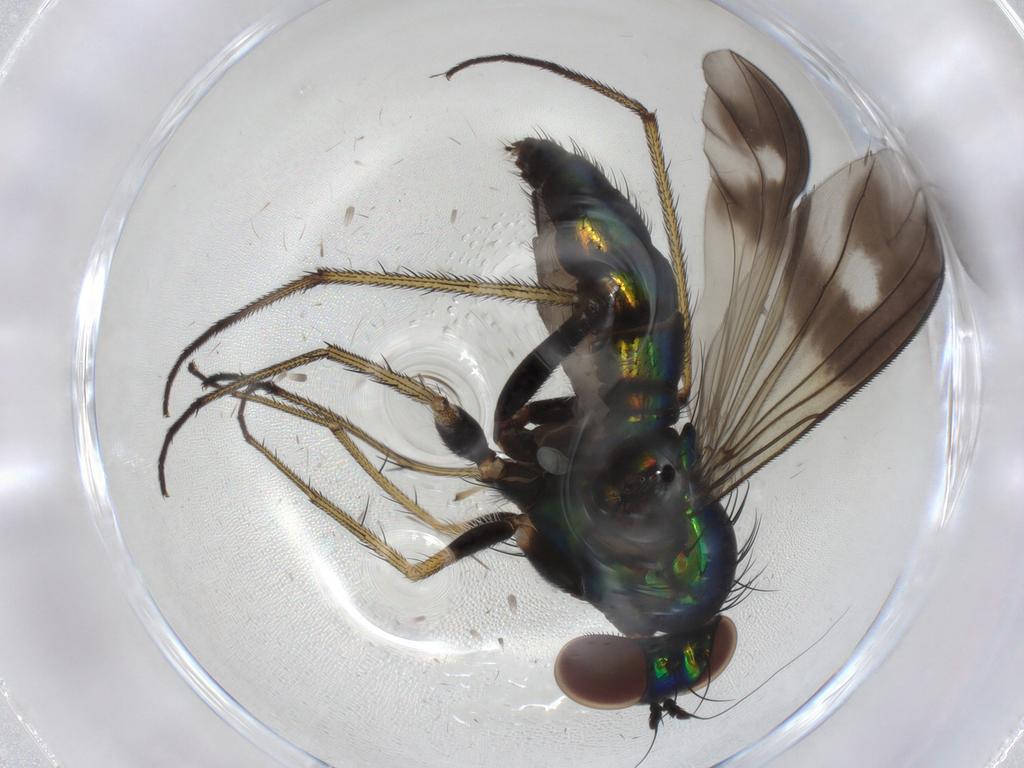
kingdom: Animalia
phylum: Arthropoda
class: Insecta
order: Diptera
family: Dolichopodidae
